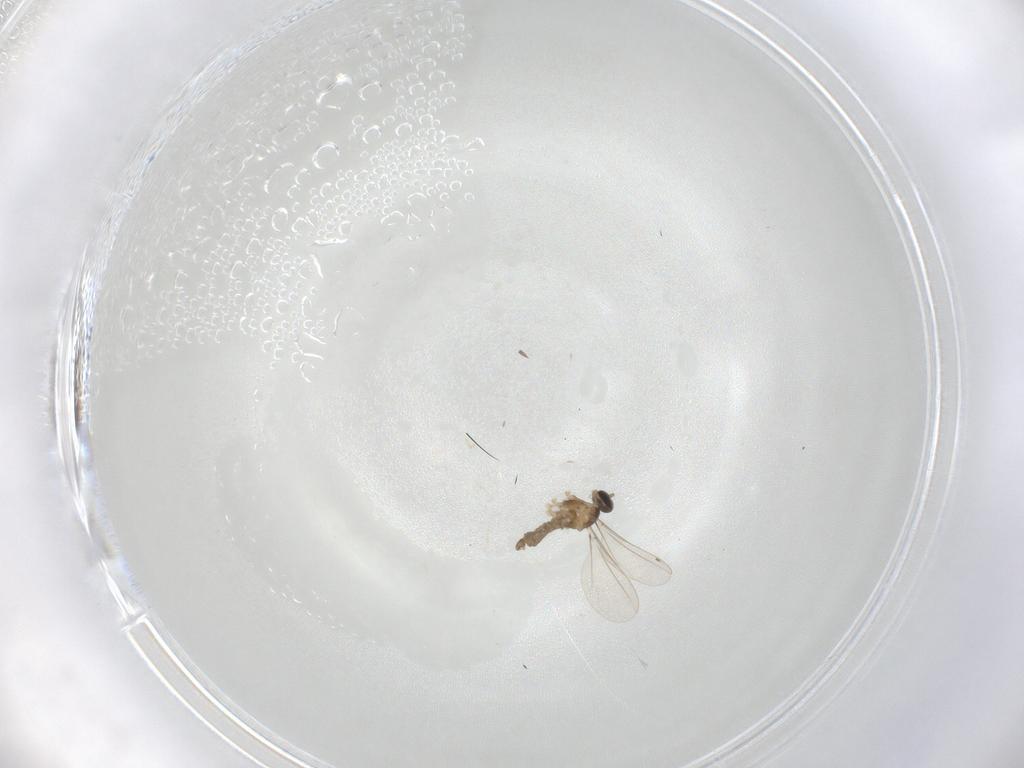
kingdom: Animalia
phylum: Arthropoda
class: Insecta
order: Diptera
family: Cecidomyiidae
